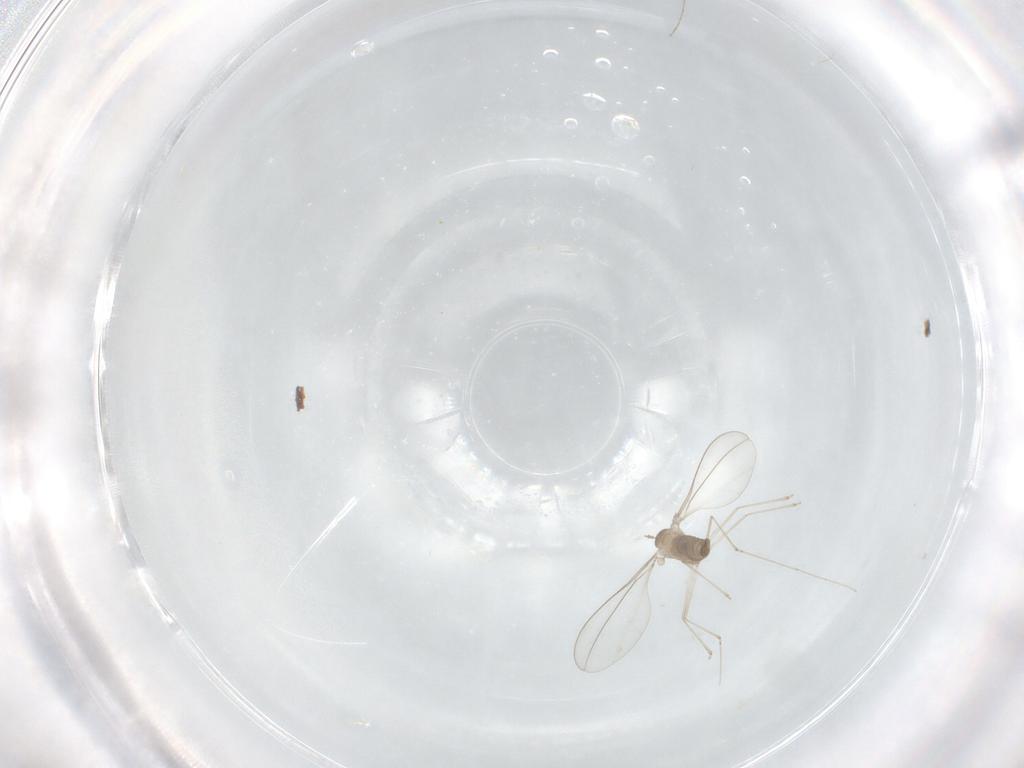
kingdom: Animalia
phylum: Arthropoda
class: Insecta
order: Diptera
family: Cecidomyiidae
